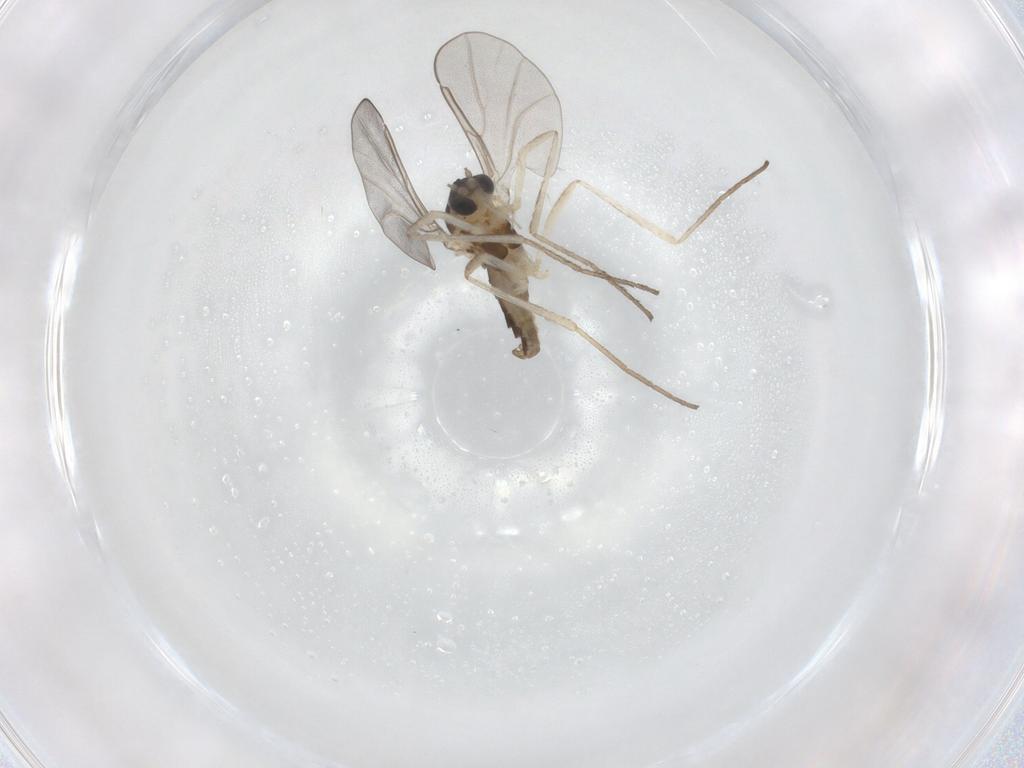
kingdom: Animalia
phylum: Arthropoda
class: Insecta
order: Diptera
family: Cecidomyiidae
